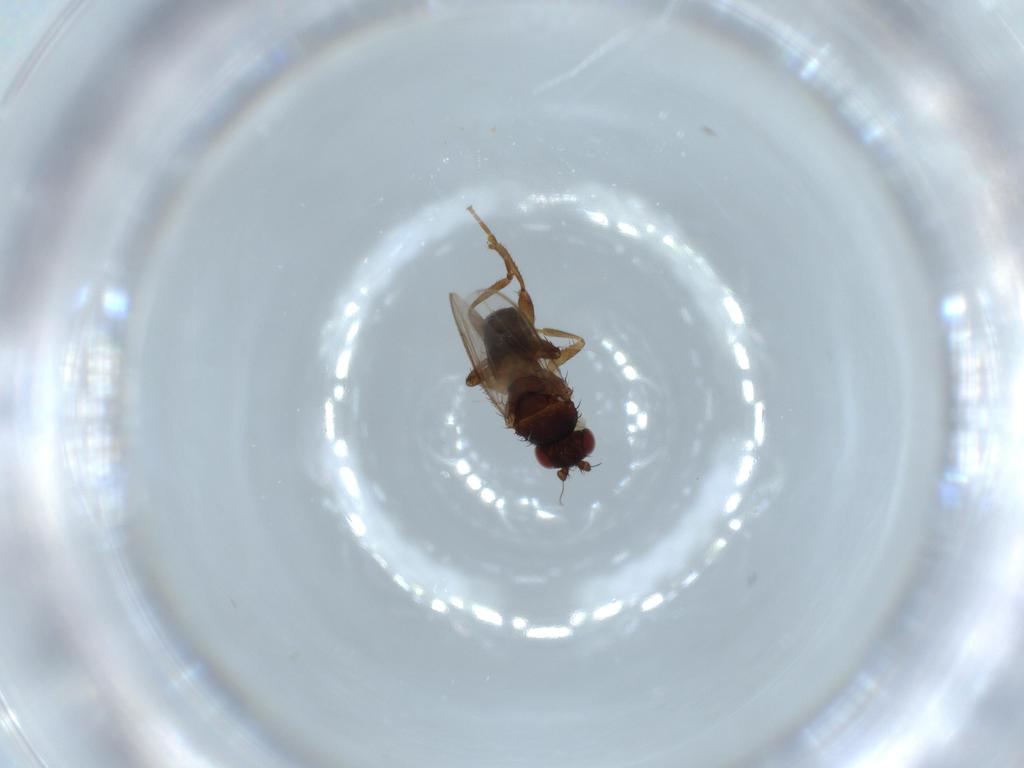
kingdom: Animalia
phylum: Arthropoda
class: Insecta
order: Diptera
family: Sphaeroceridae
